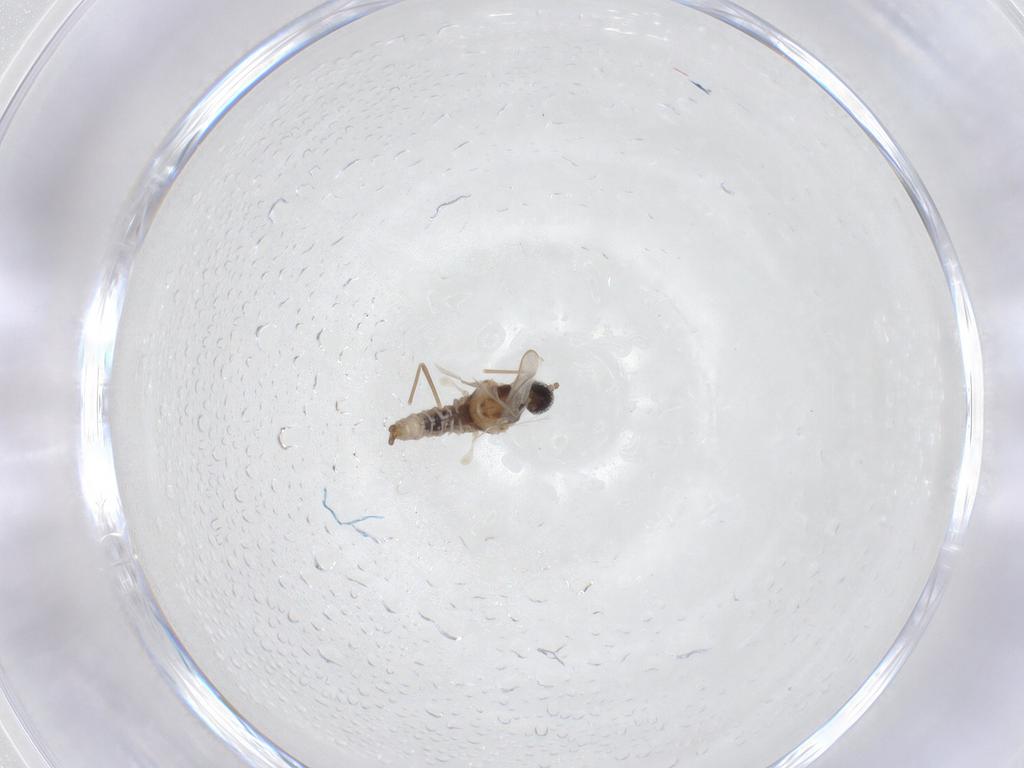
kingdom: Animalia
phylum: Arthropoda
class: Insecta
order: Diptera
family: Cecidomyiidae
